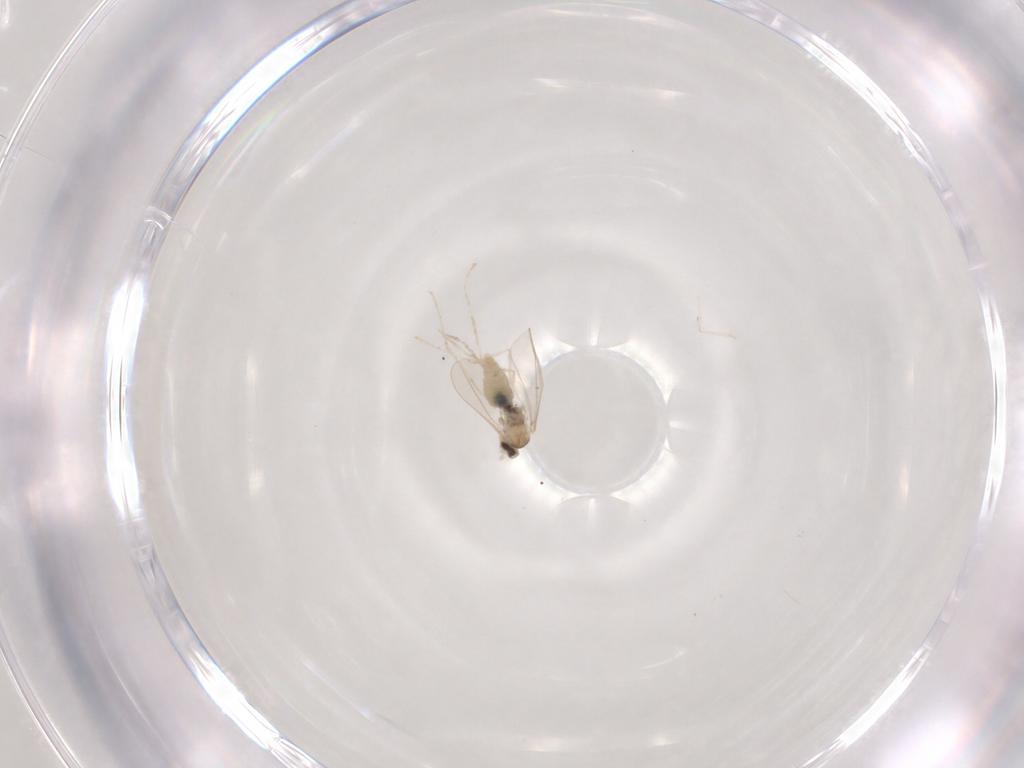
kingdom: Animalia
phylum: Arthropoda
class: Insecta
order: Diptera
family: Cecidomyiidae
